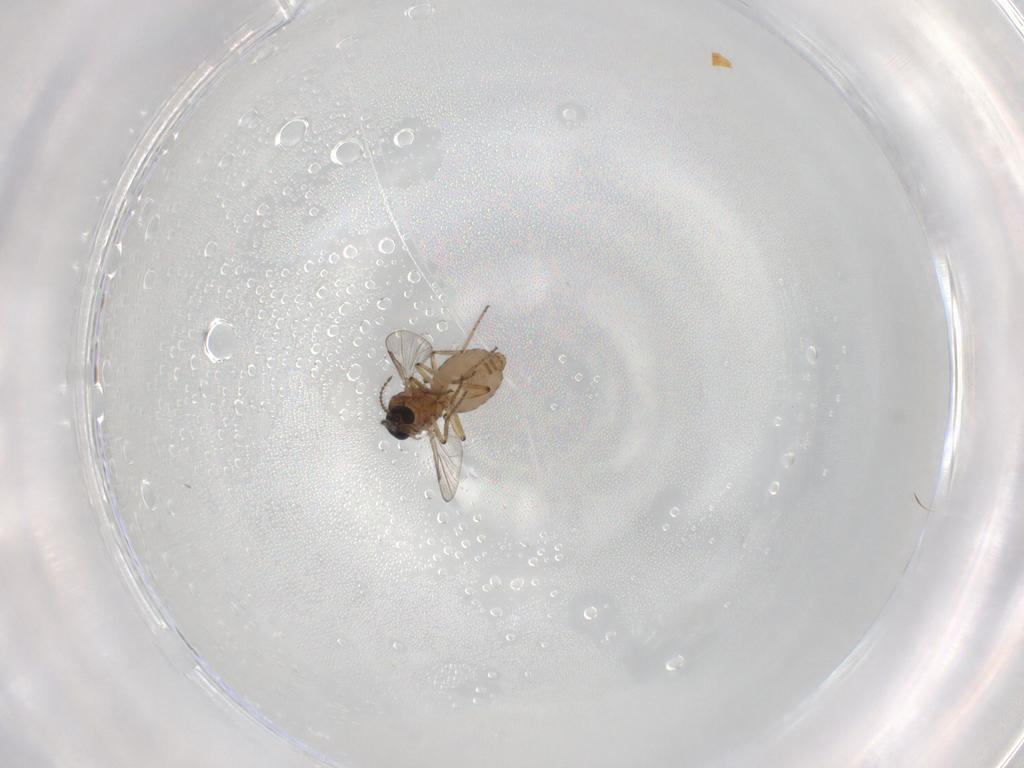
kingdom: Animalia
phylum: Arthropoda
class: Insecta
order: Diptera
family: Ceratopogonidae
